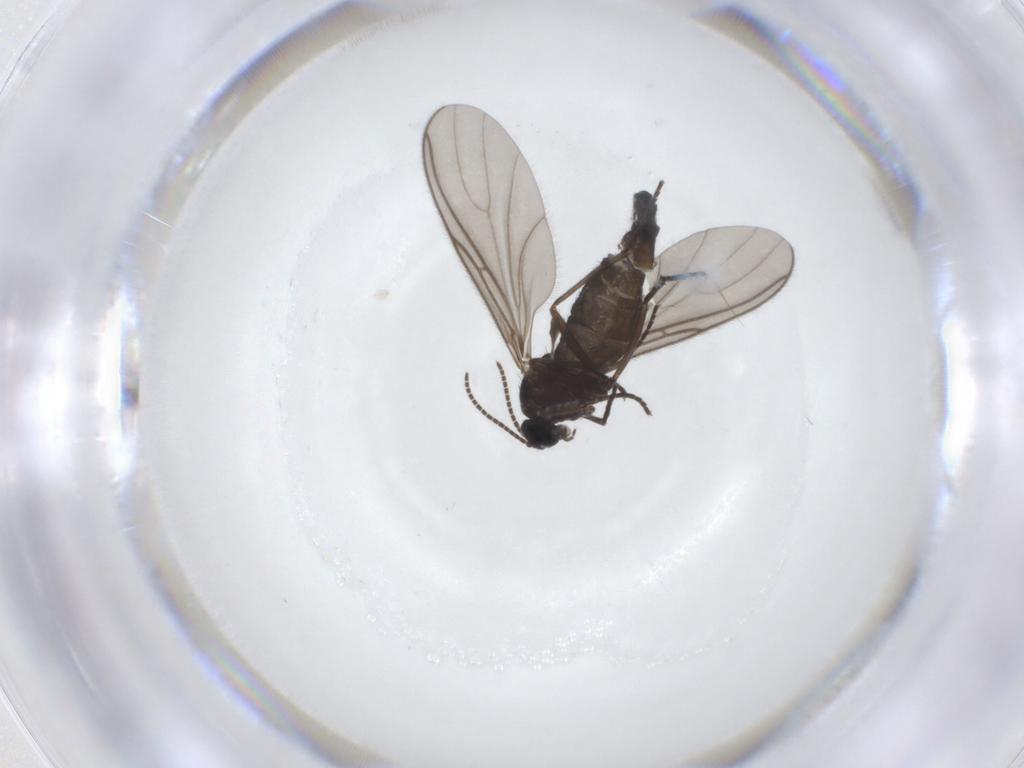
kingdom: Animalia
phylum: Arthropoda
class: Insecta
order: Diptera
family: Sciaridae
